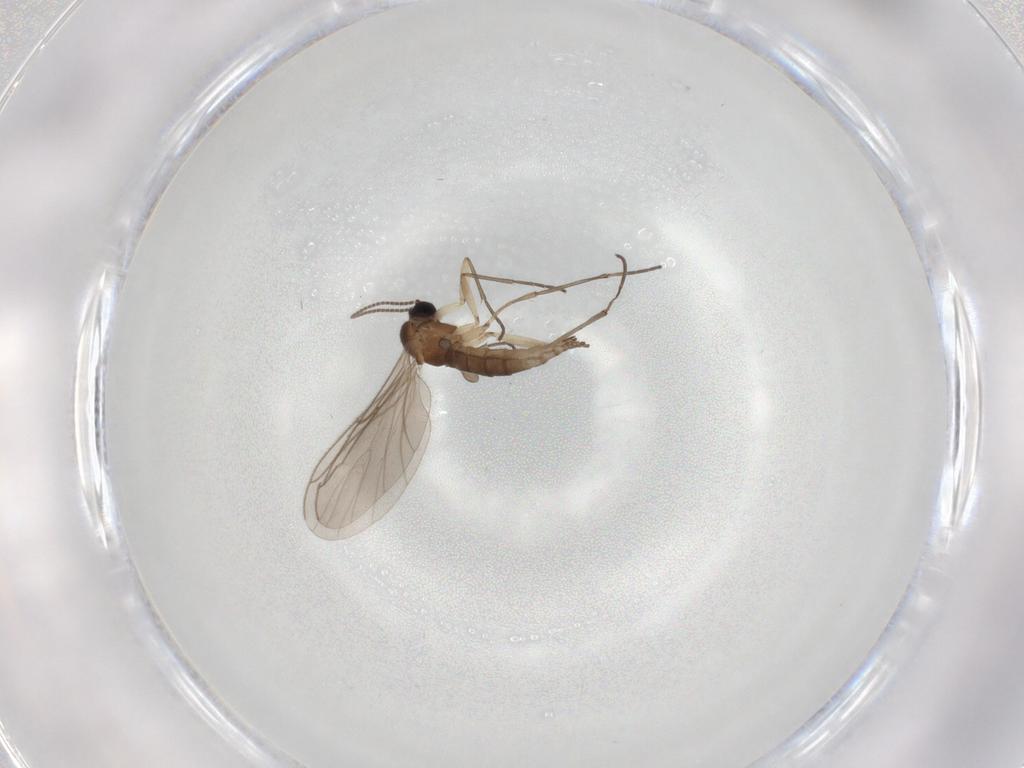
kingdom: Animalia
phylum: Arthropoda
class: Insecta
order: Diptera
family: Sciaridae
